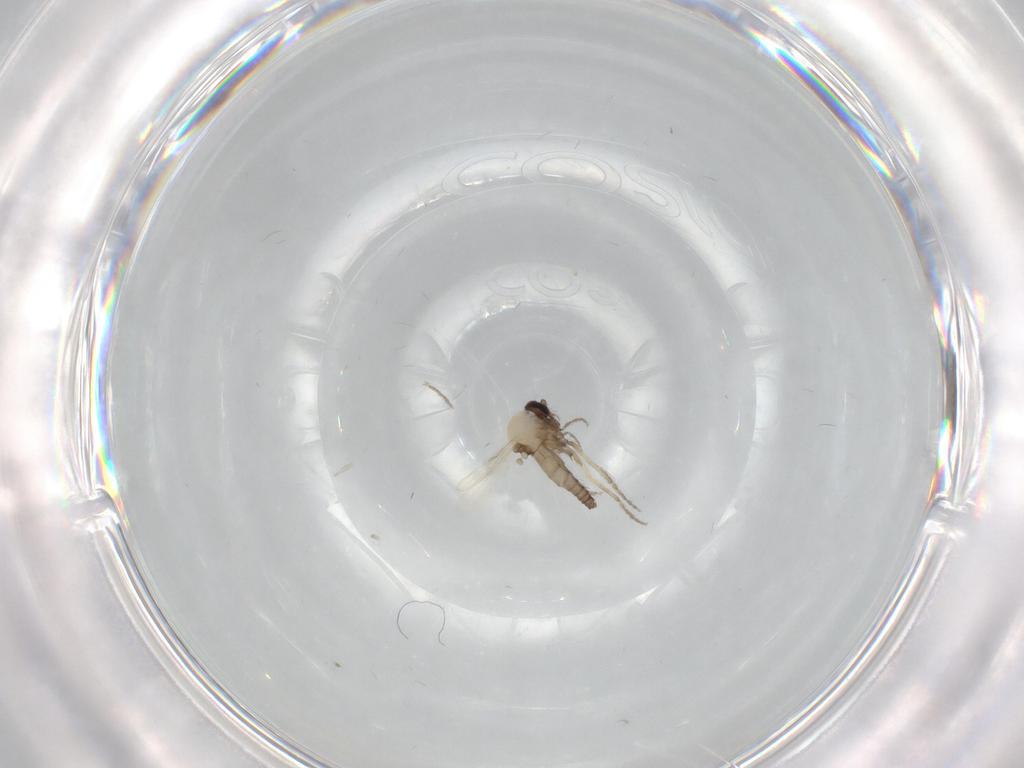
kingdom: Animalia
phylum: Arthropoda
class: Insecta
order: Diptera
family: Ceratopogonidae
